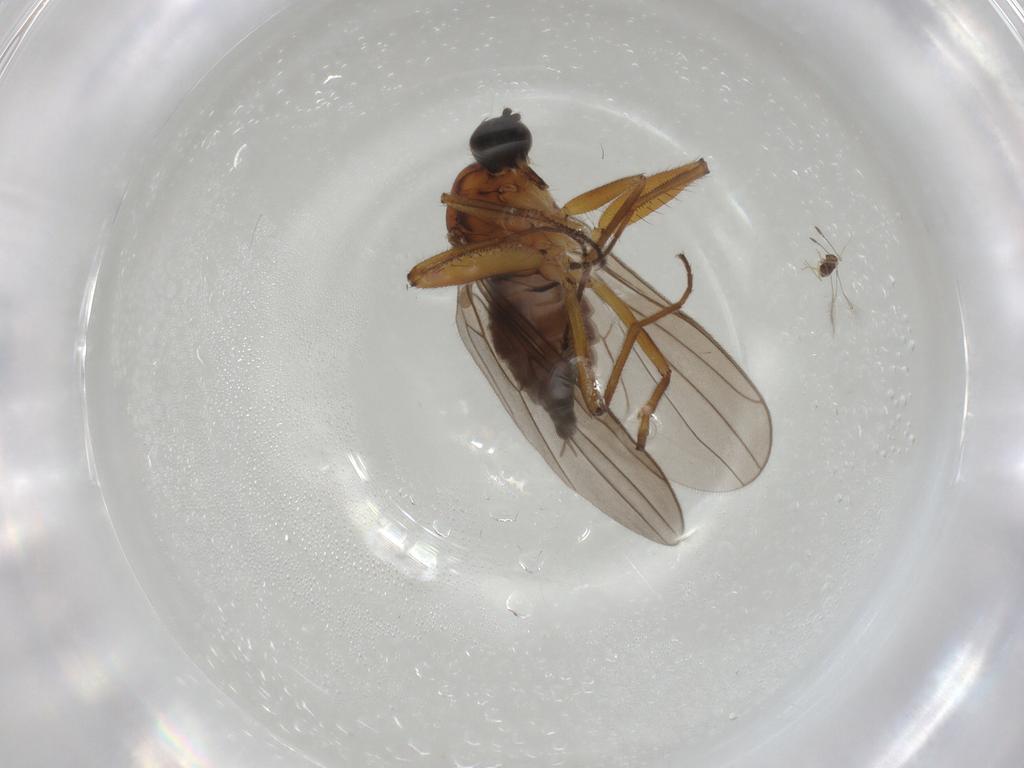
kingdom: Animalia
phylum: Arthropoda
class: Insecta
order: Diptera
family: Hybotidae
